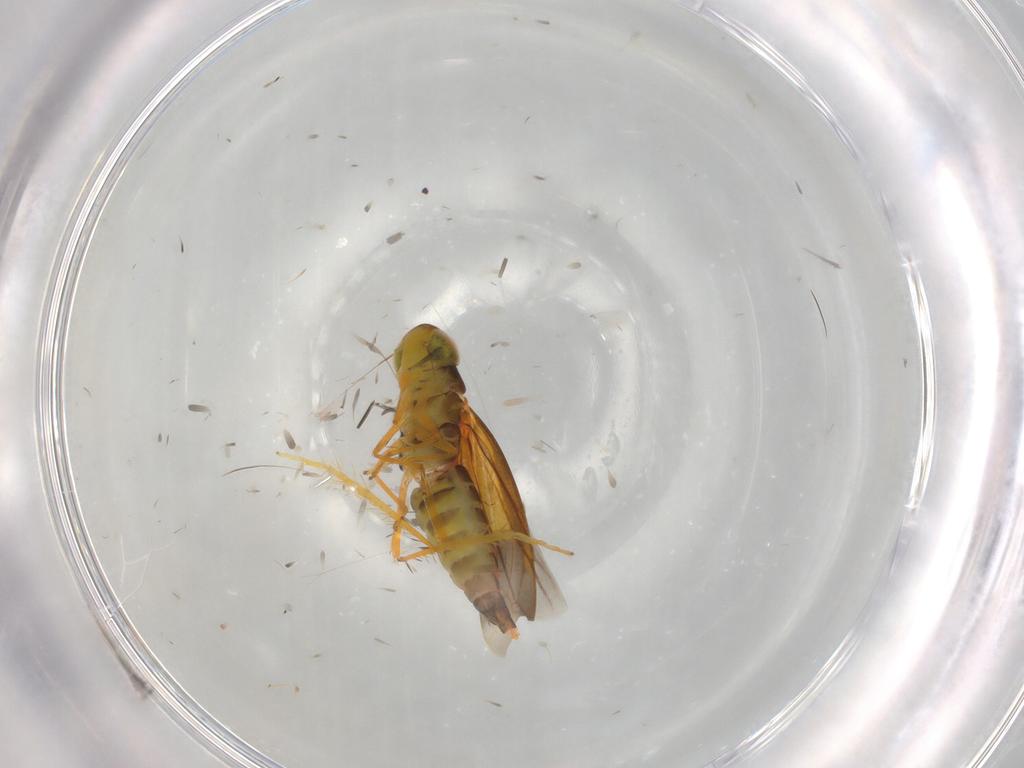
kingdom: Animalia
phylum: Arthropoda
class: Insecta
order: Hemiptera
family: Cicadellidae
